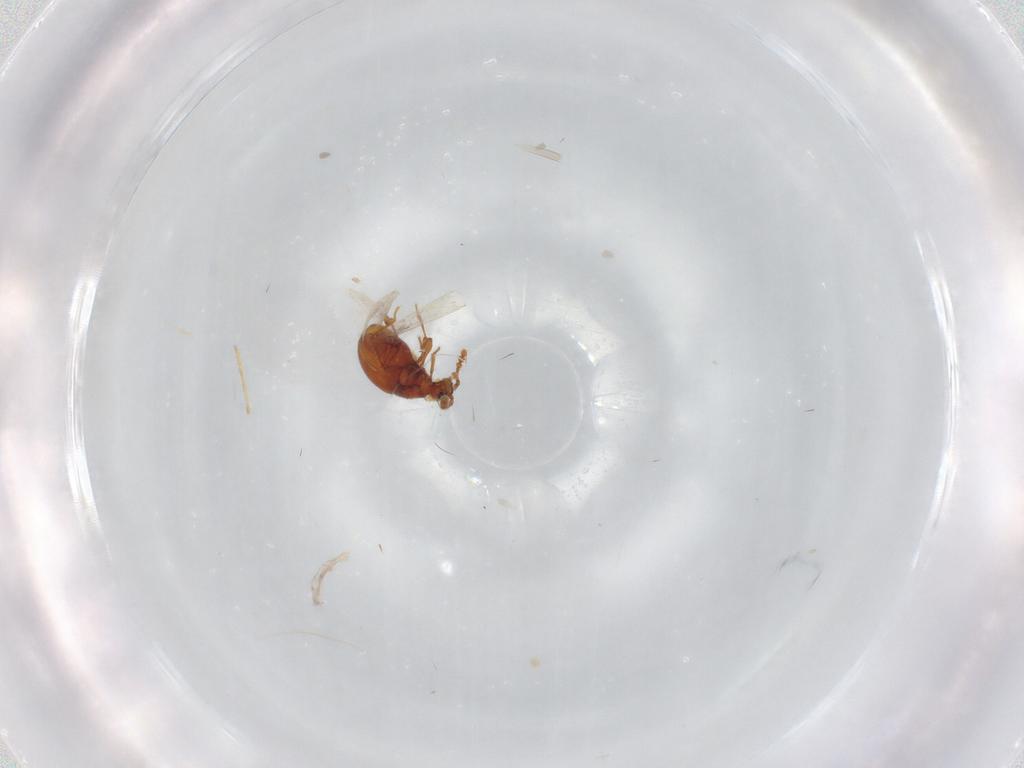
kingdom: Animalia
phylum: Arthropoda
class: Insecta
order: Coleoptera
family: Staphylinidae
